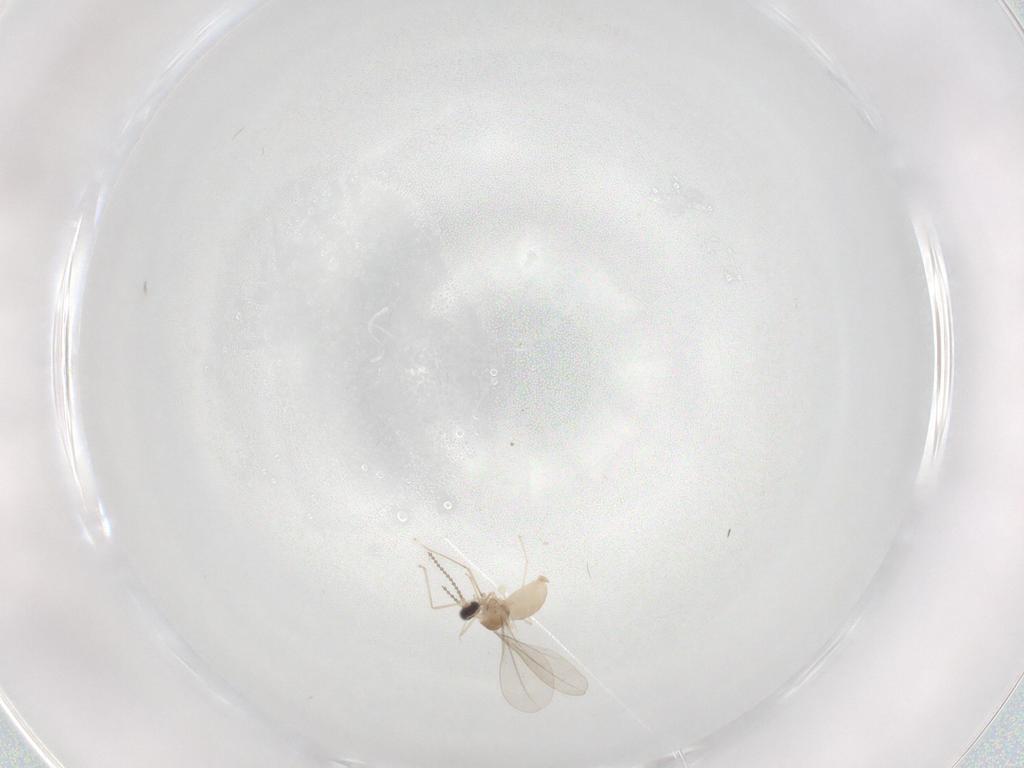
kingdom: Animalia
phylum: Arthropoda
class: Insecta
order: Diptera
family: Cecidomyiidae
